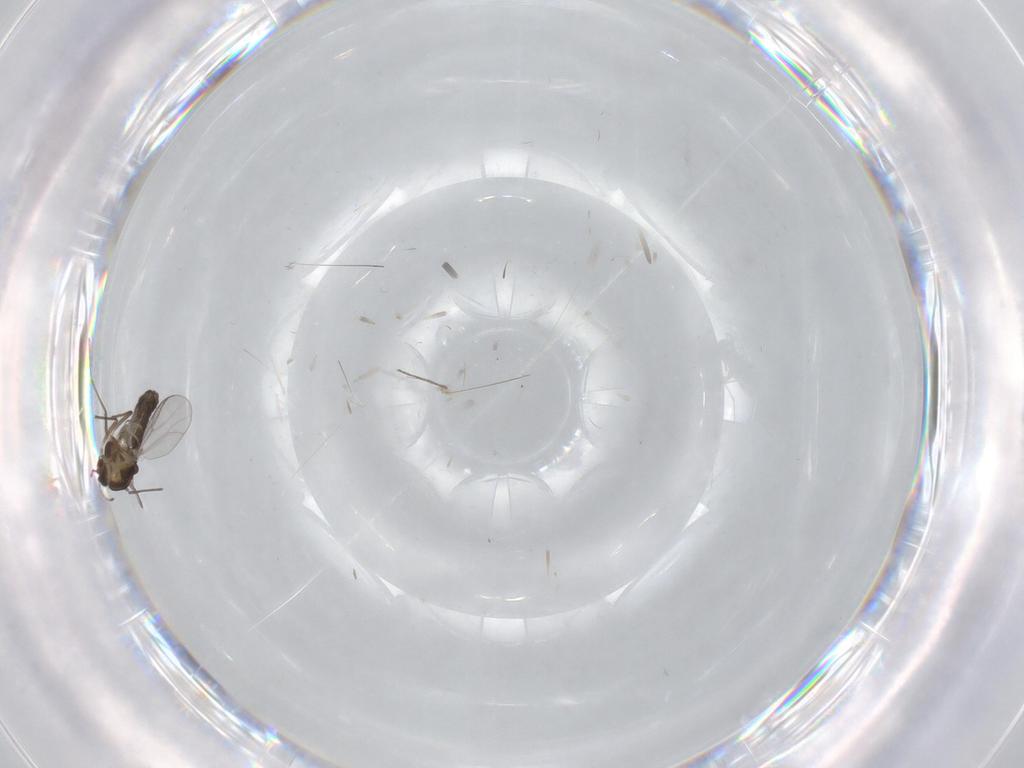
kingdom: Animalia
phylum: Arthropoda
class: Insecta
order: Diptera
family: Chironomidae
